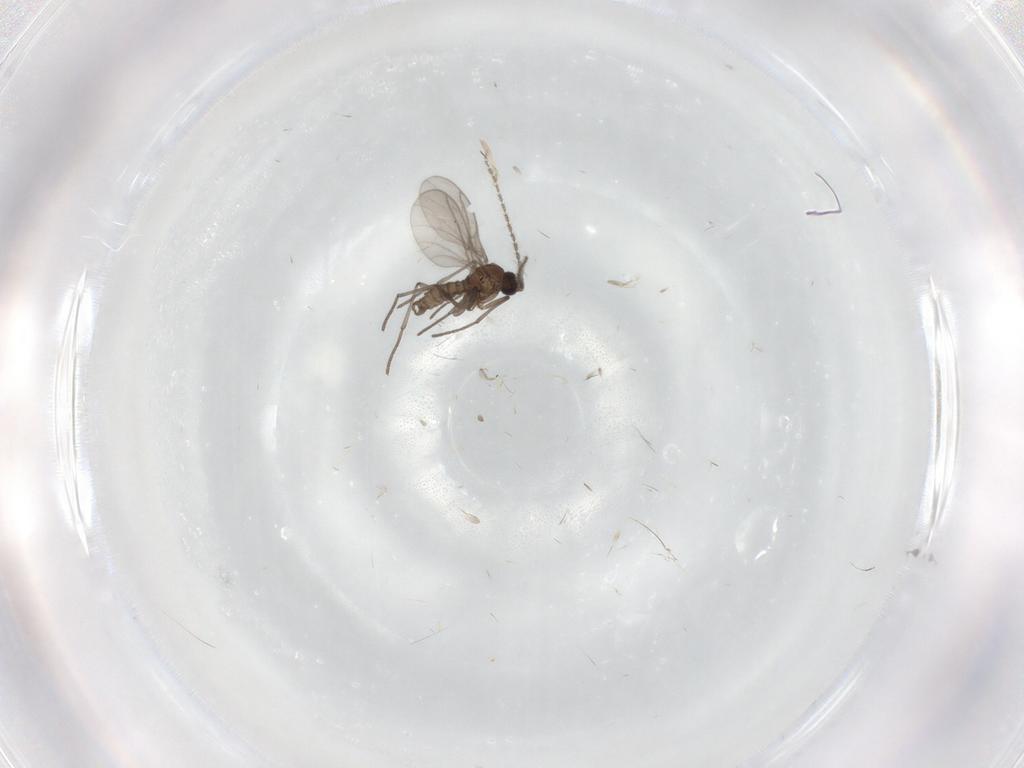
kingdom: Animalia
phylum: Arthropoda
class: Insecta
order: Diptera
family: Sciaridae
